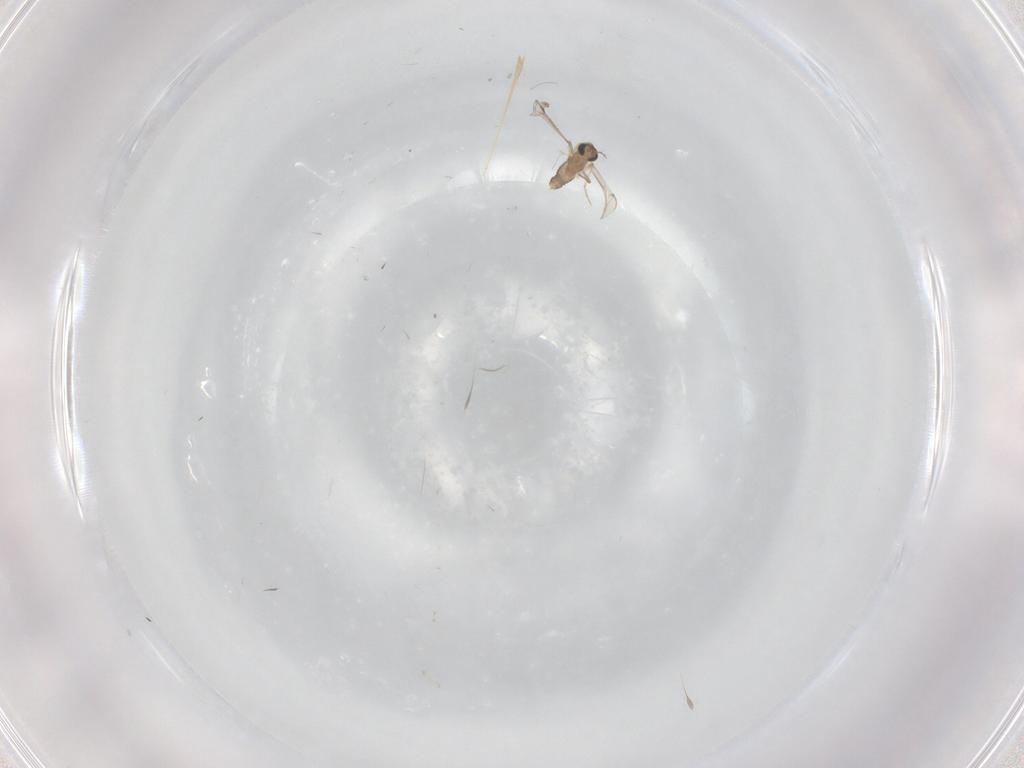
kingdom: Animalia
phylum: Arthropoda
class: Insecta
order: Diptera
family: Chironomidae
